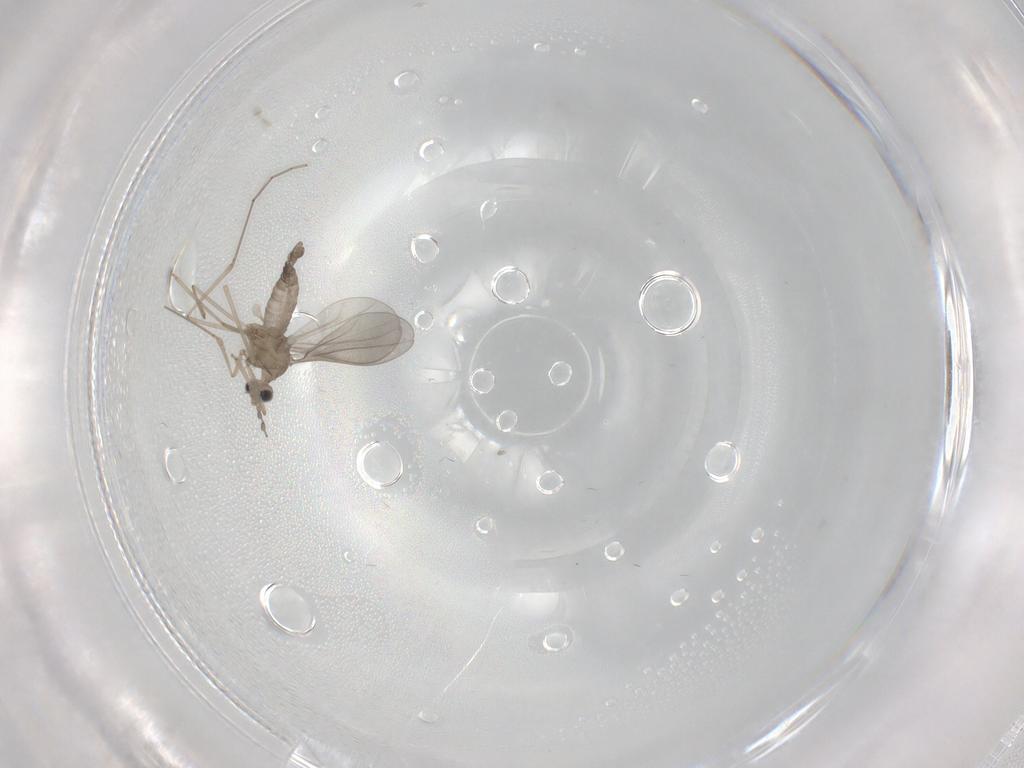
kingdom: Animalia
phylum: Arthropoda
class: Insecta
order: Diptera
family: Cecidomyiidae
